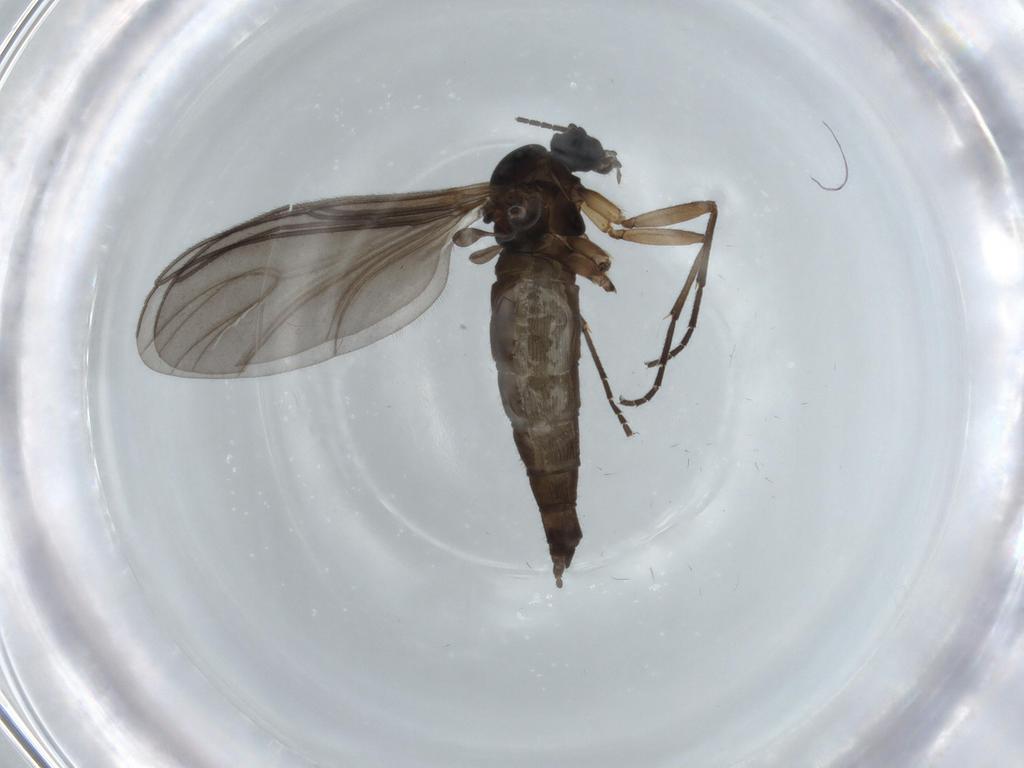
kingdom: Animalia
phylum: Arthropoda
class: Insecta
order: Diptera
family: Sciaridae
